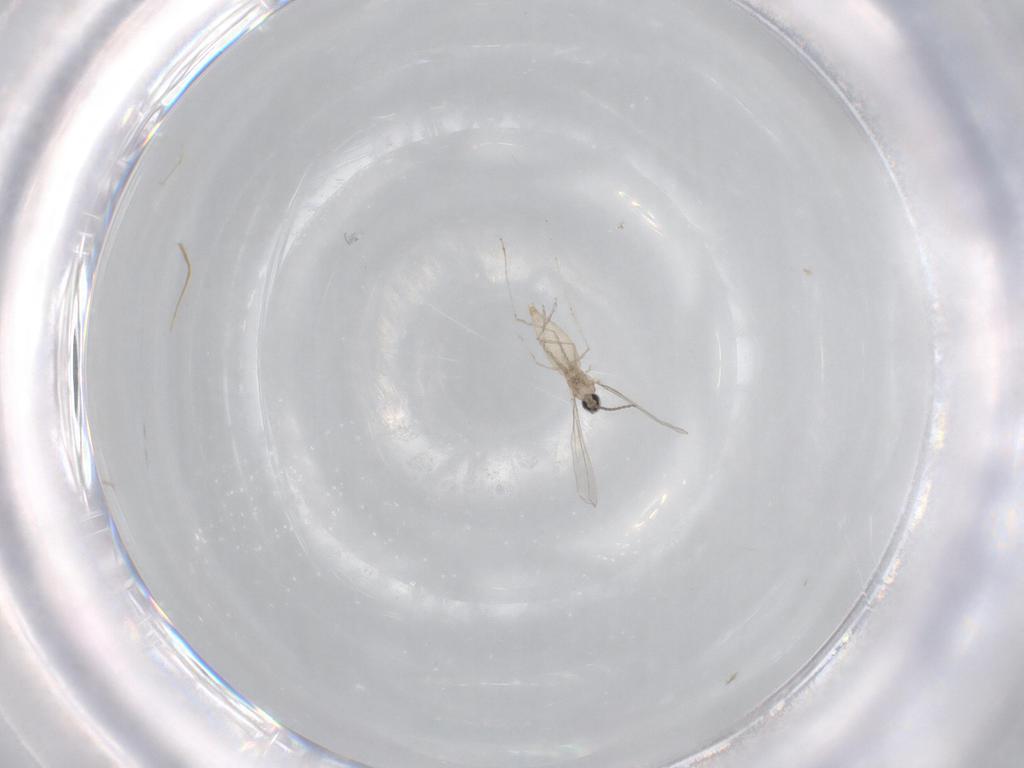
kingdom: Animalia
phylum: Arthropoda
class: Insecta
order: Diptera
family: Cecidomyiidae
